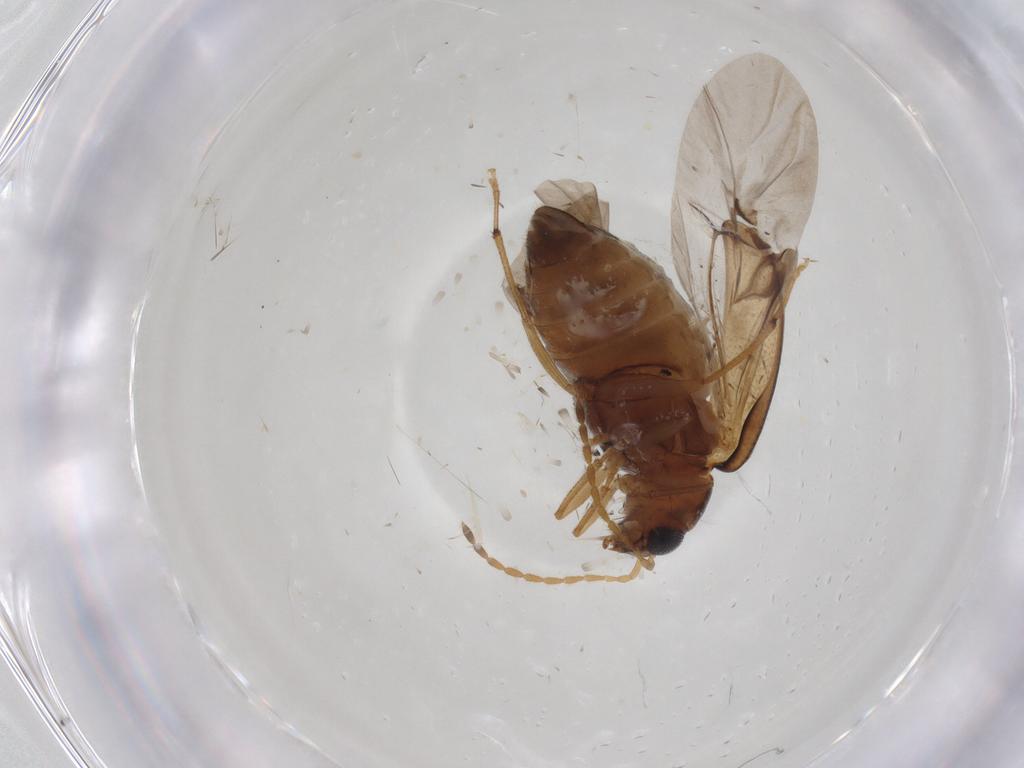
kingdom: Animalia
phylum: Arthropoda
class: Insecta
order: Coleoptera
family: Chrysomelidae
